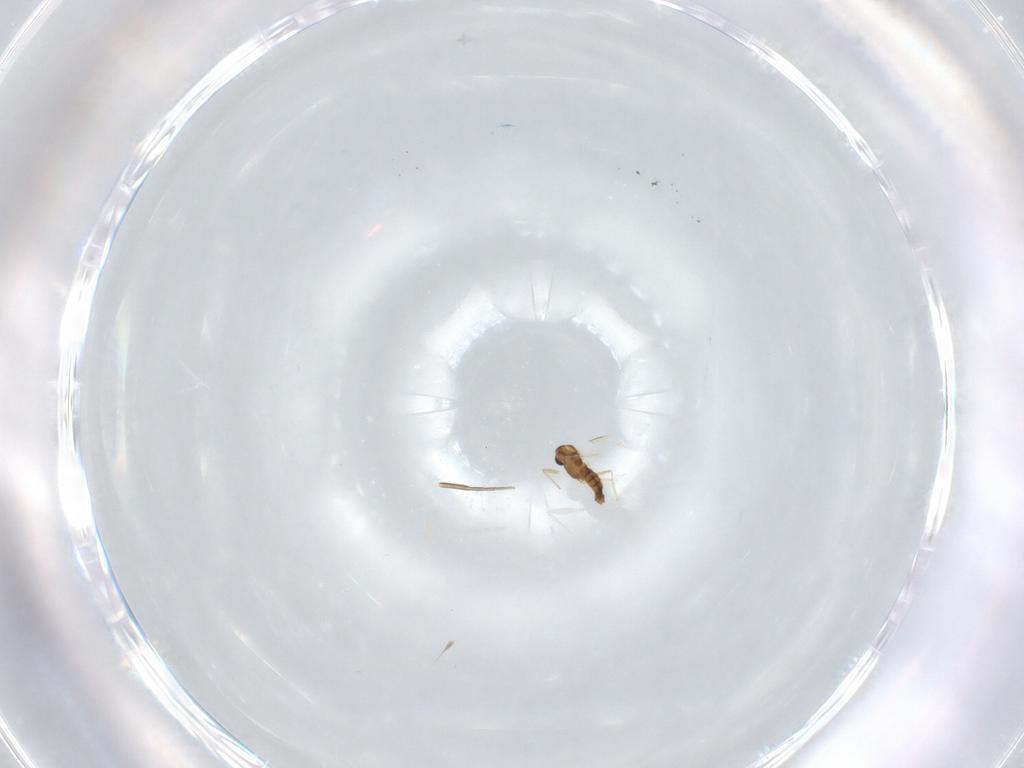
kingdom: Animalia
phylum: Arthropoda
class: Insecta
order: Diptera
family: Chironomidae
